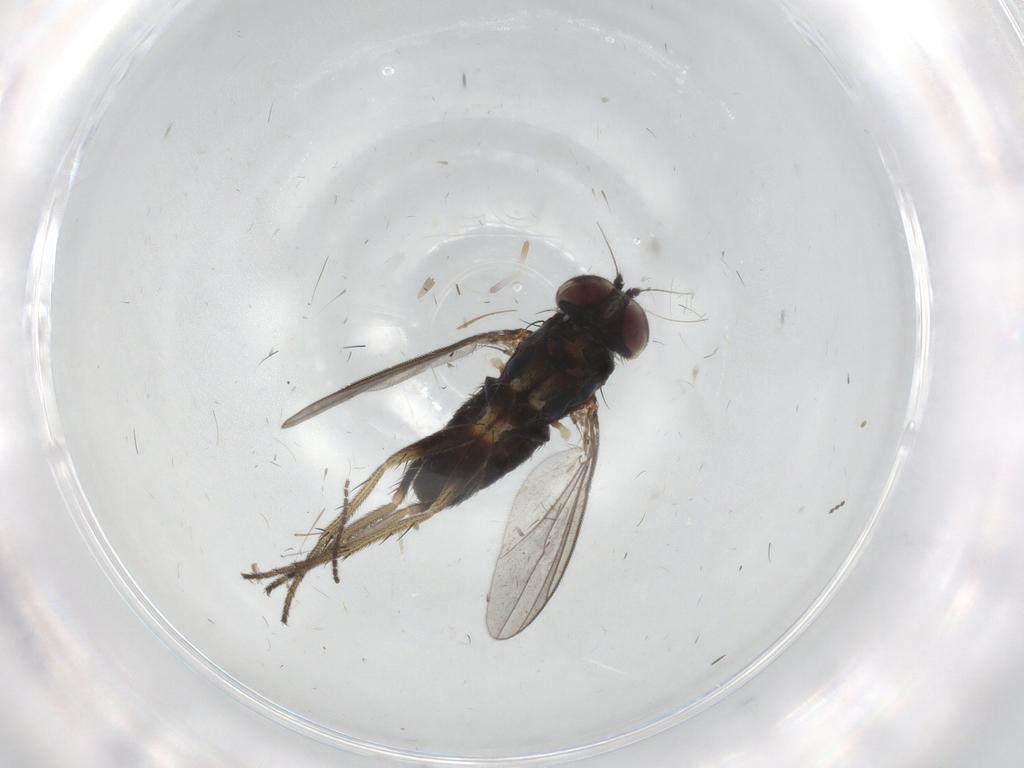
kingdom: Animalia
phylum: Arthropoda
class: Insecta
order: Diptera
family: Sciaridae
